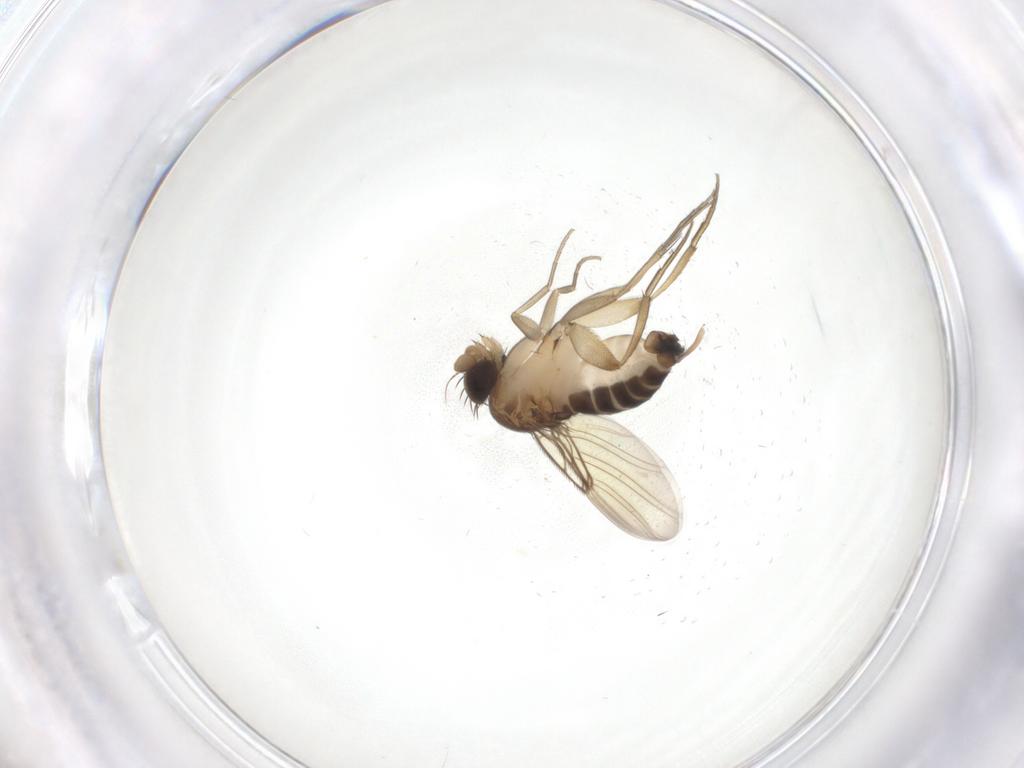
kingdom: Animalia
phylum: Arthropoda
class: Insecta
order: Diptera
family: Phoridae
